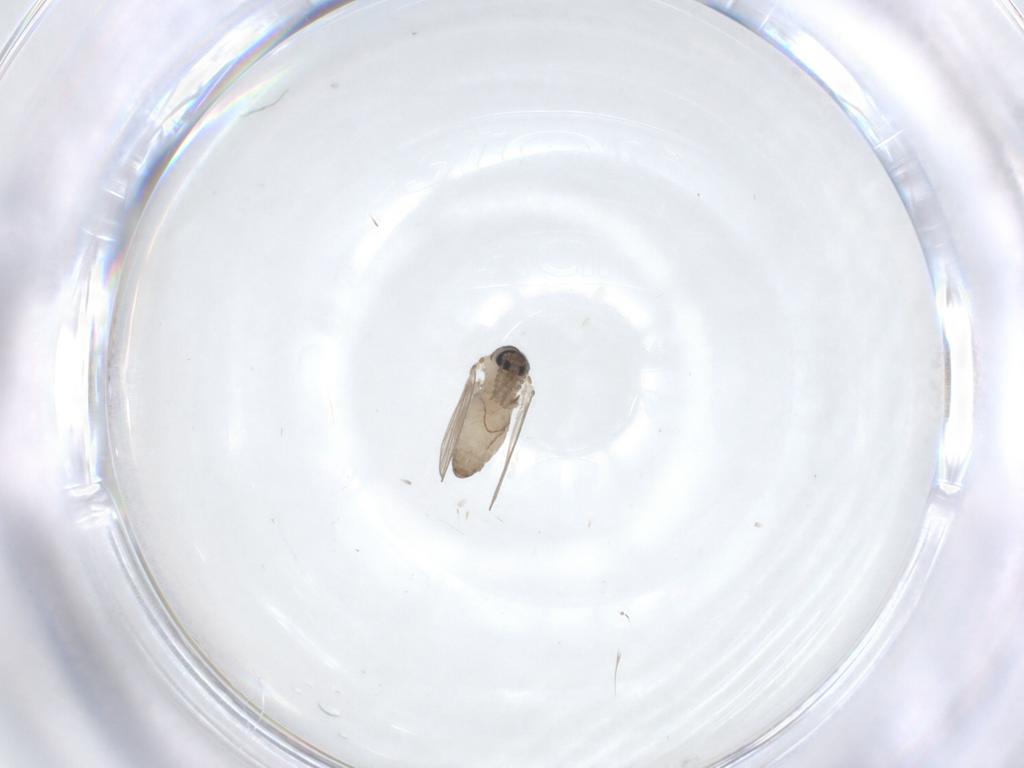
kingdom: Animalia
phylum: Arthropoda
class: Insecta
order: Diptera
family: Psychodidae
